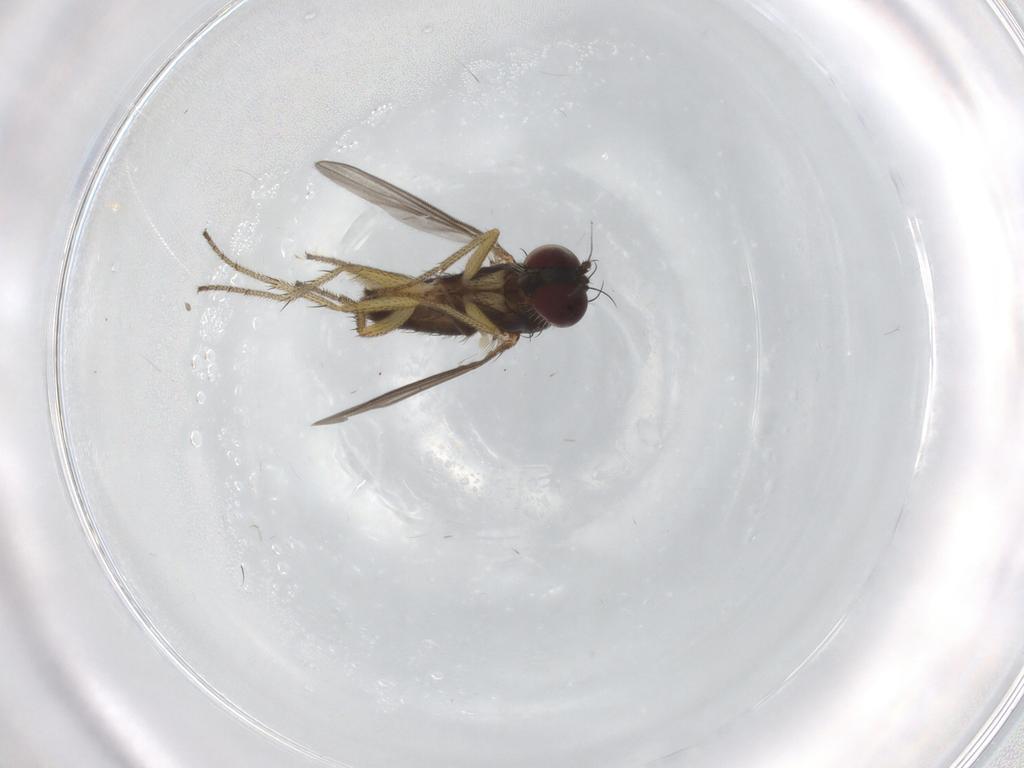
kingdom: Animalia
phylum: Arthropoda
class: Insecta
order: Diptera
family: Dolichopodidae
